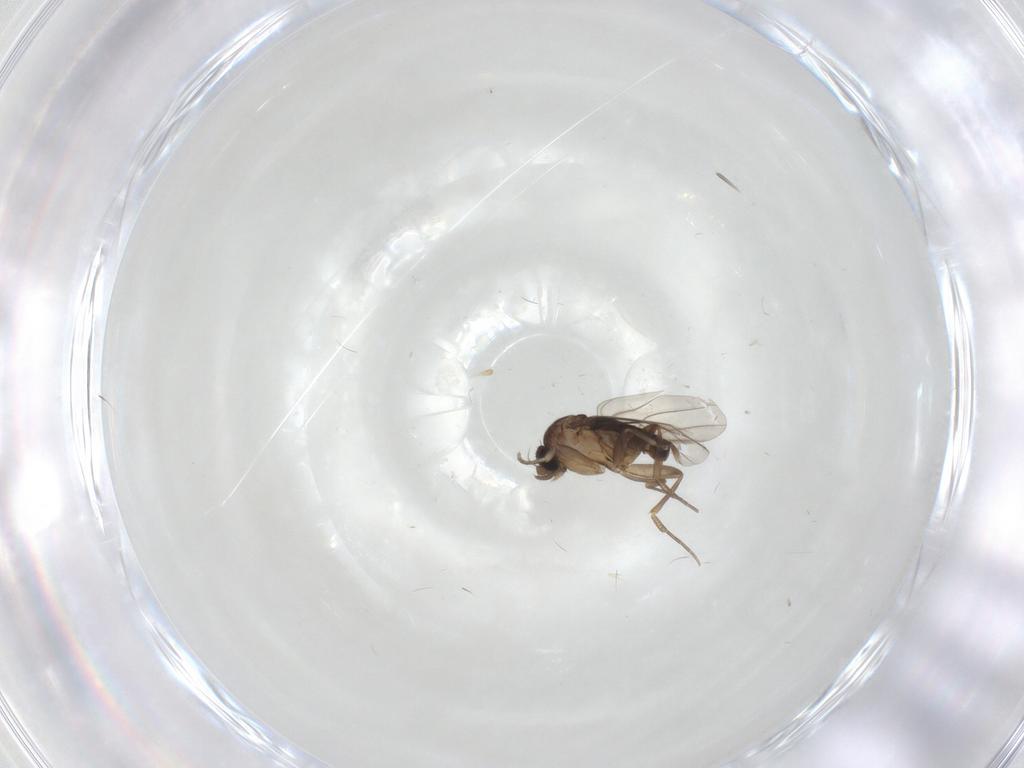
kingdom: Animalia
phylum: Arthropoda
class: Insecta
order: Diptera
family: Phoridae
